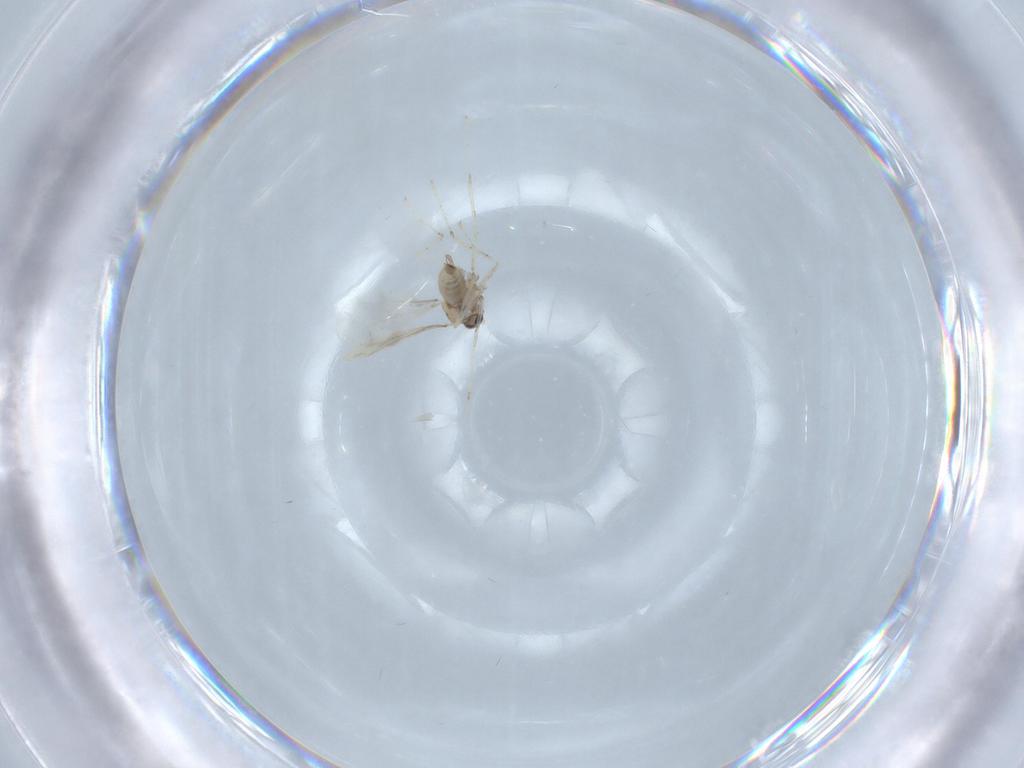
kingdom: Animalia
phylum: Arthropoda
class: Insecta
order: Diptera
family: Cecidomyiidae
